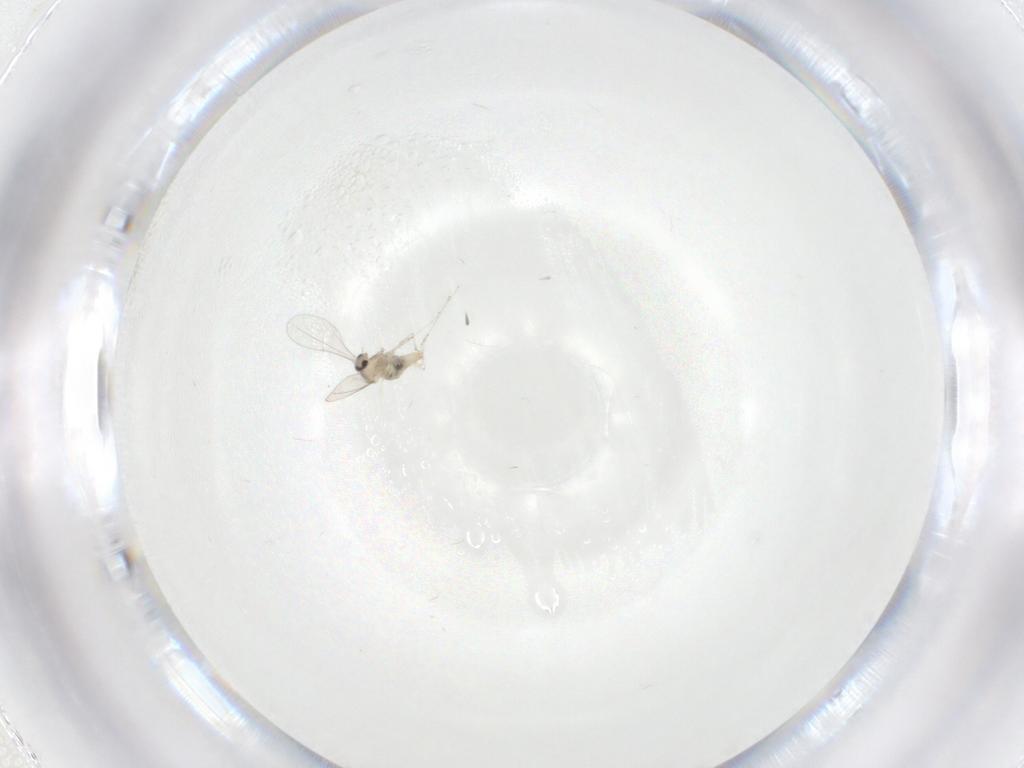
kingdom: Animalia
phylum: Arthropoda
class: Insecta
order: Diptera
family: Cecidomyiidae
